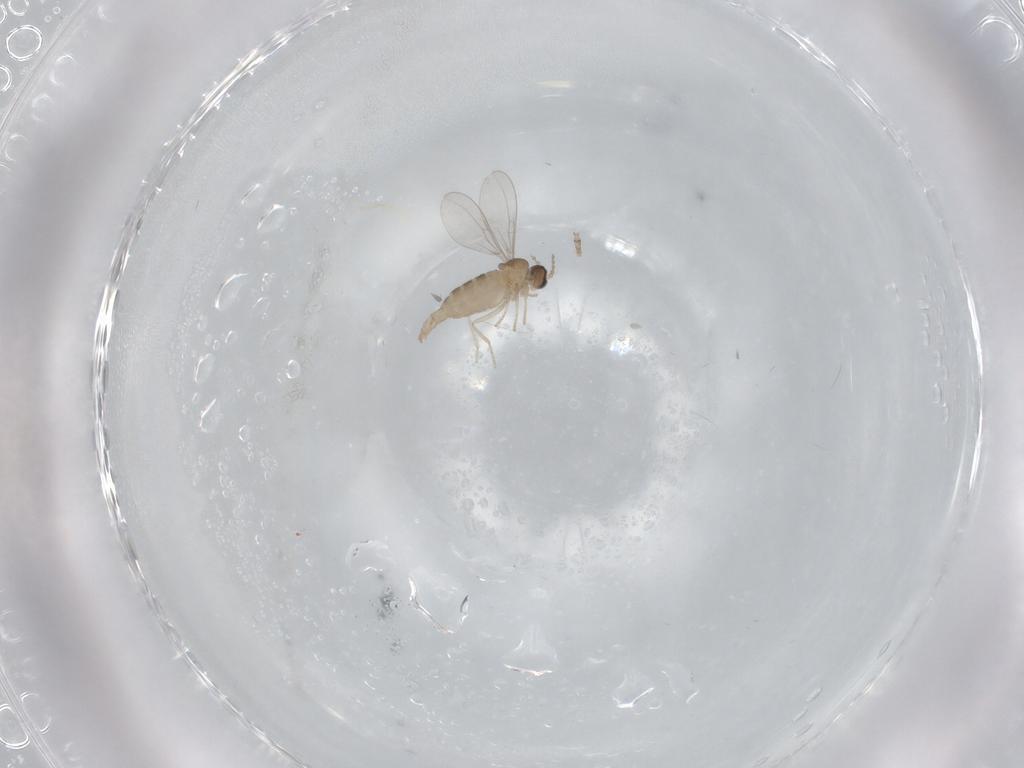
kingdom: Animalia
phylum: Arthropoda
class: Insecta
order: Diptera
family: Cecidomyiidae
